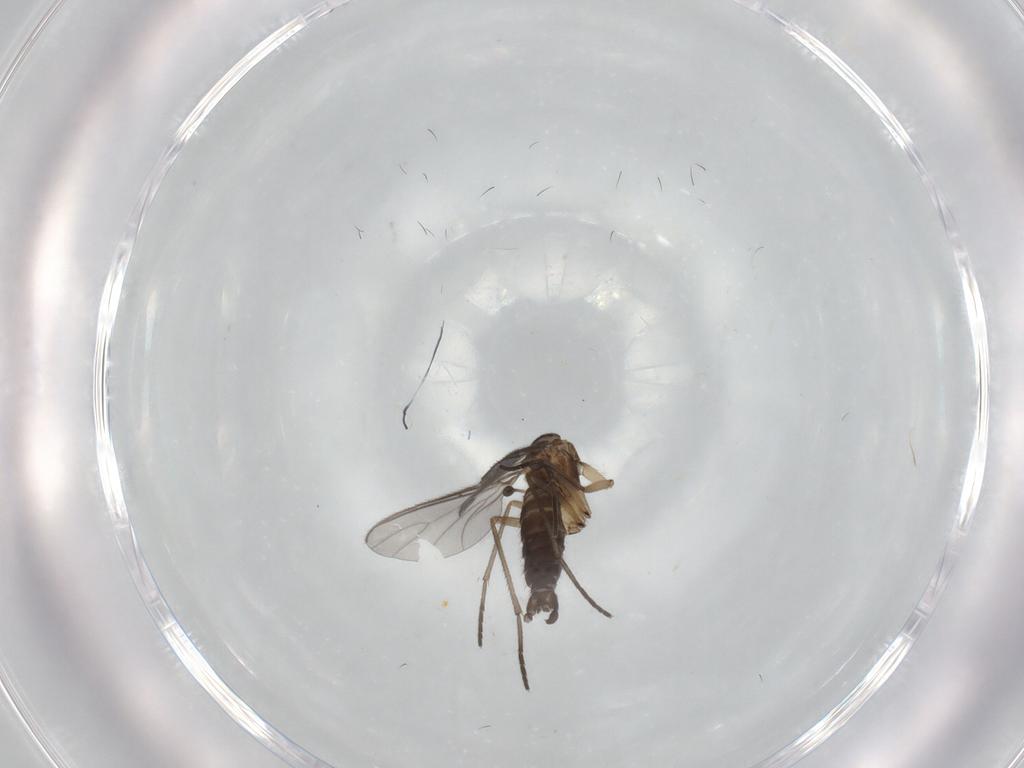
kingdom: Animalia
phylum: Arthropoda
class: Insecta
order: Diptera
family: Sciaridae
